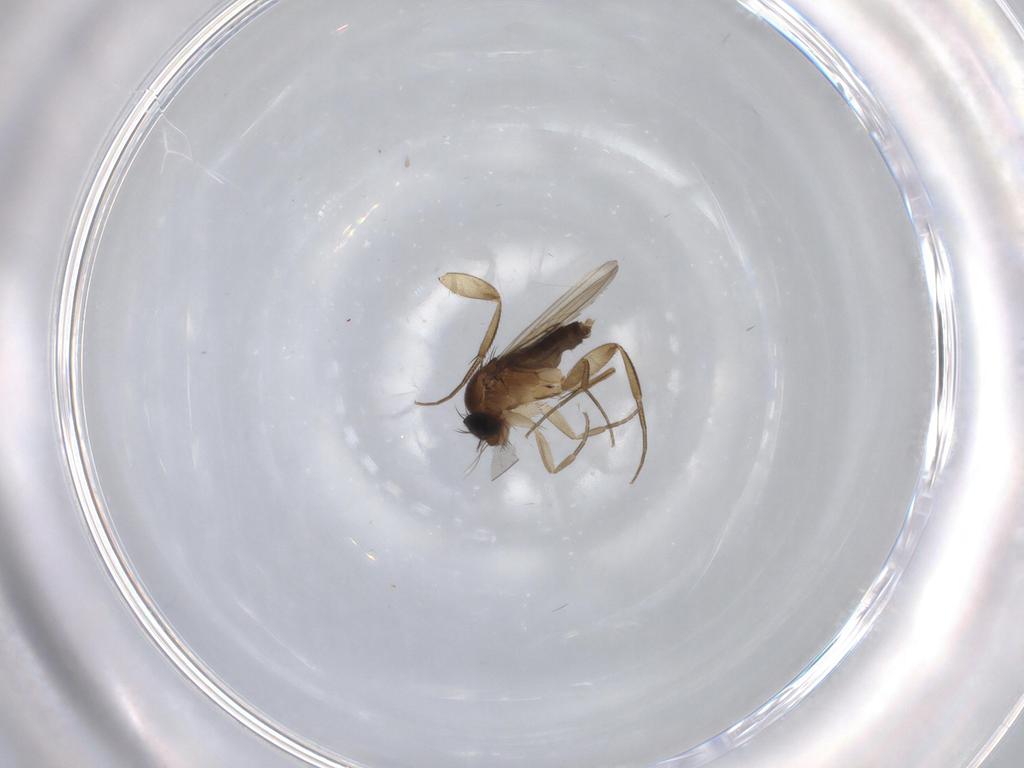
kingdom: Animalia
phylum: Arthropoda
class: Insecta
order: Diptera
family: Phoridae
